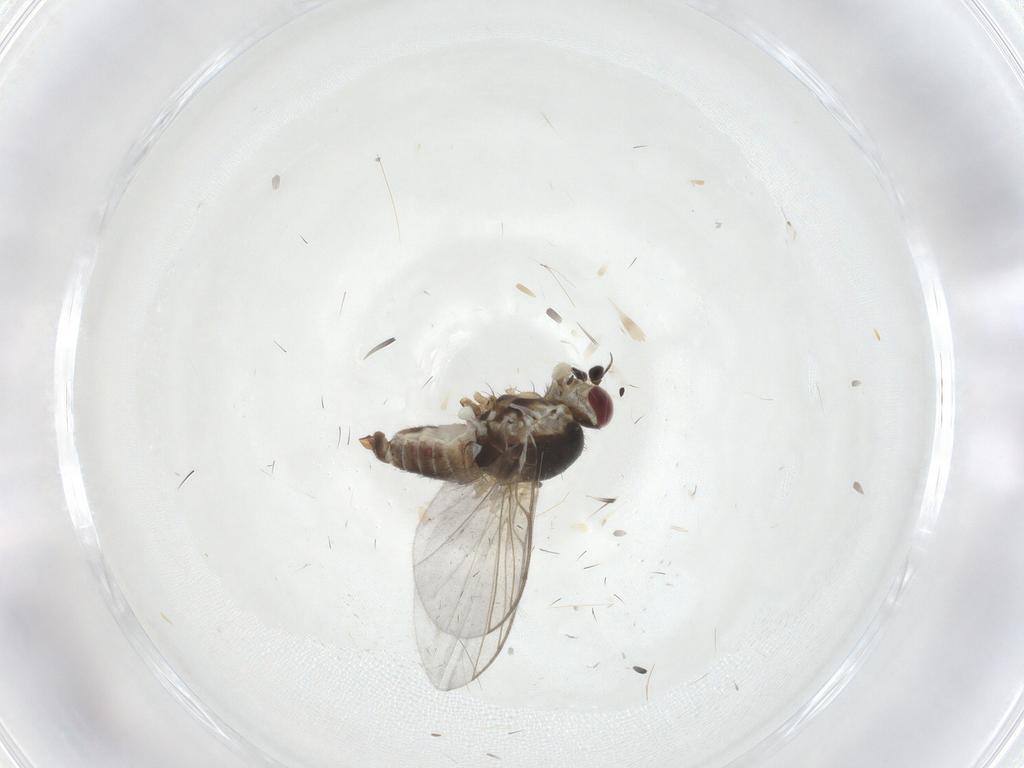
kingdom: Animalia
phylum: Arthropoda
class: Insecta
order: Diptera
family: Agromyzidae
